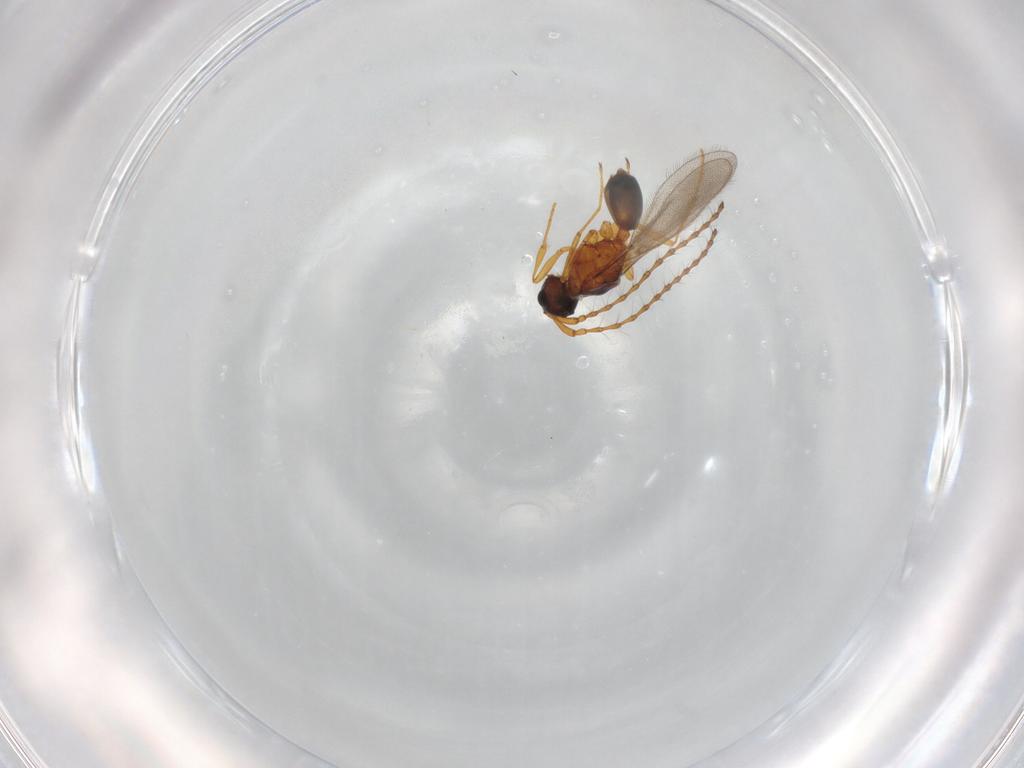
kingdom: Animalia
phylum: Arthropoda
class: Insecta
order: Hymenoptera
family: Diapriidae
